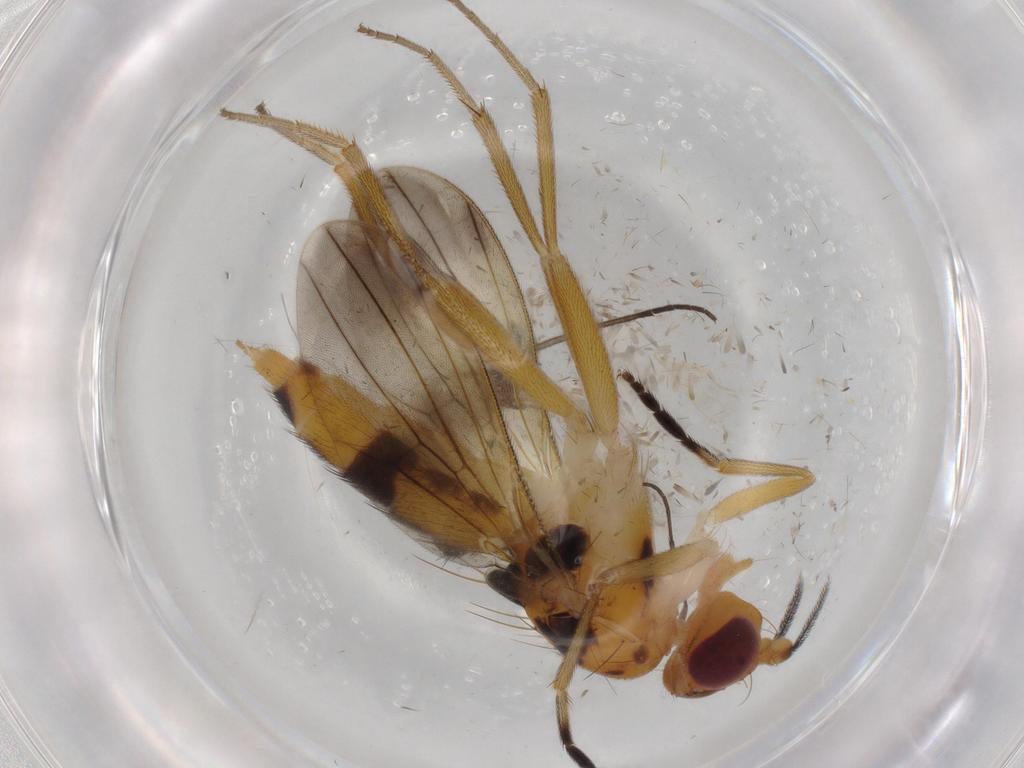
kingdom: Animalia
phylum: Arthropoda
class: Insecta
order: Diptera
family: Clusiidae
